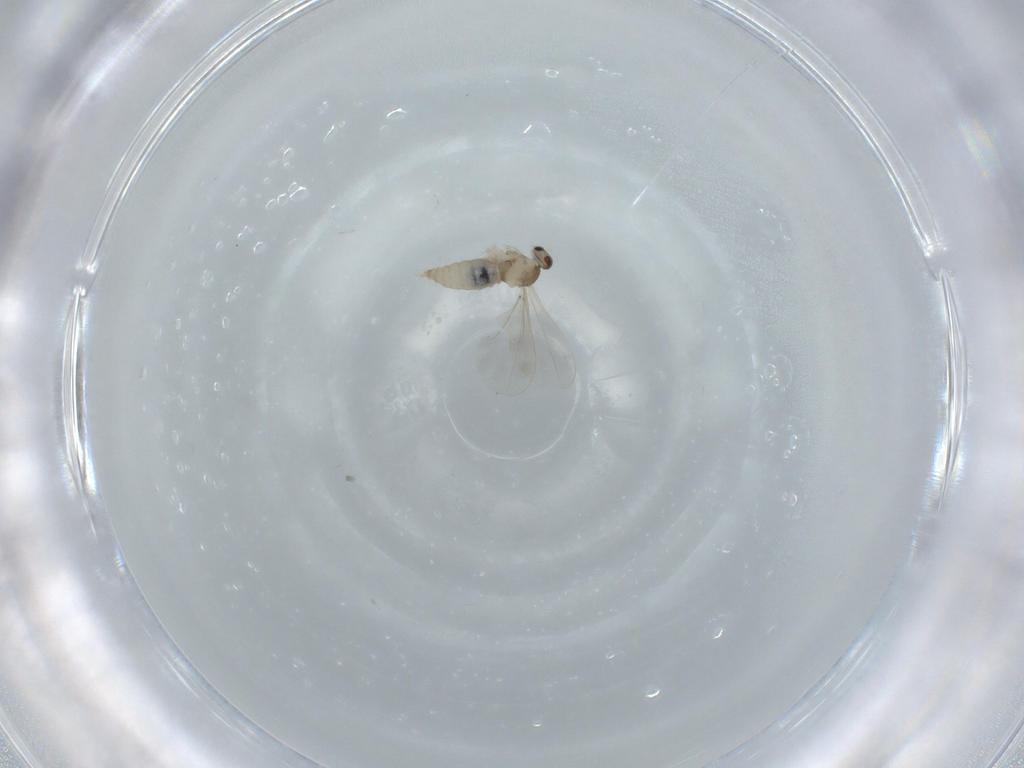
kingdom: Animalia
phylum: Arthropoda
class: Insecta
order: Diptera
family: Cecidomyiidae
